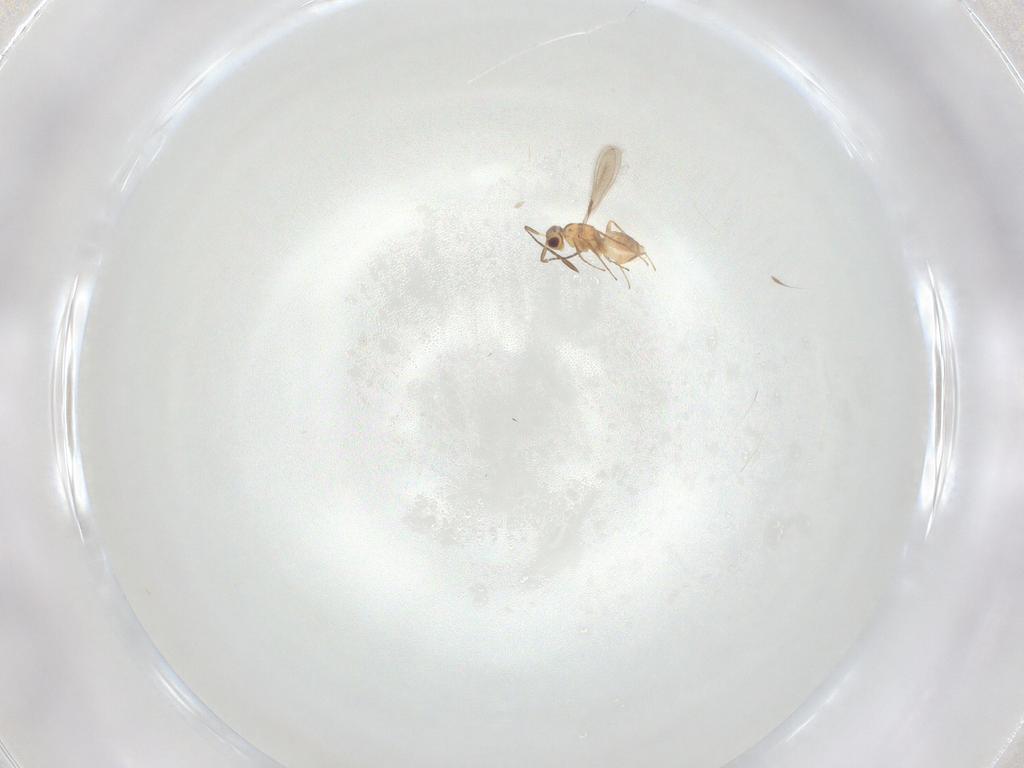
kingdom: Animalia
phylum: Arthropoda
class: Insecta
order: Hymenoptera
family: Mymaridae
